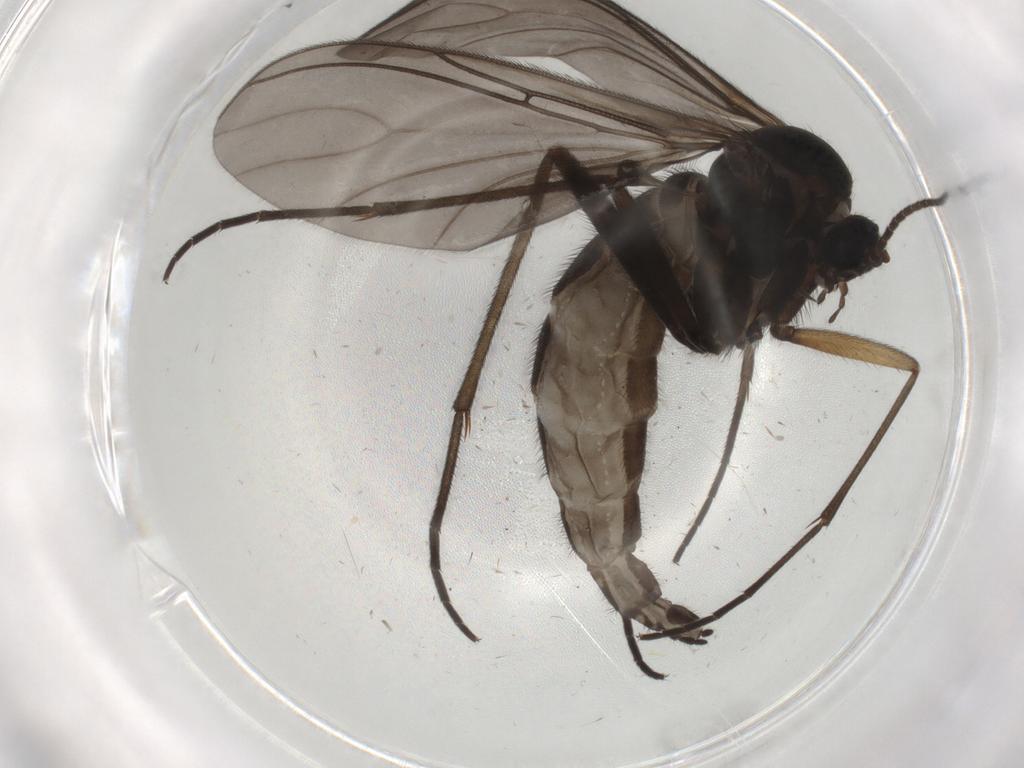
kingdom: Animalia
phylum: Arthropoda
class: Insecta
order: Diptera
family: Sciaridae
